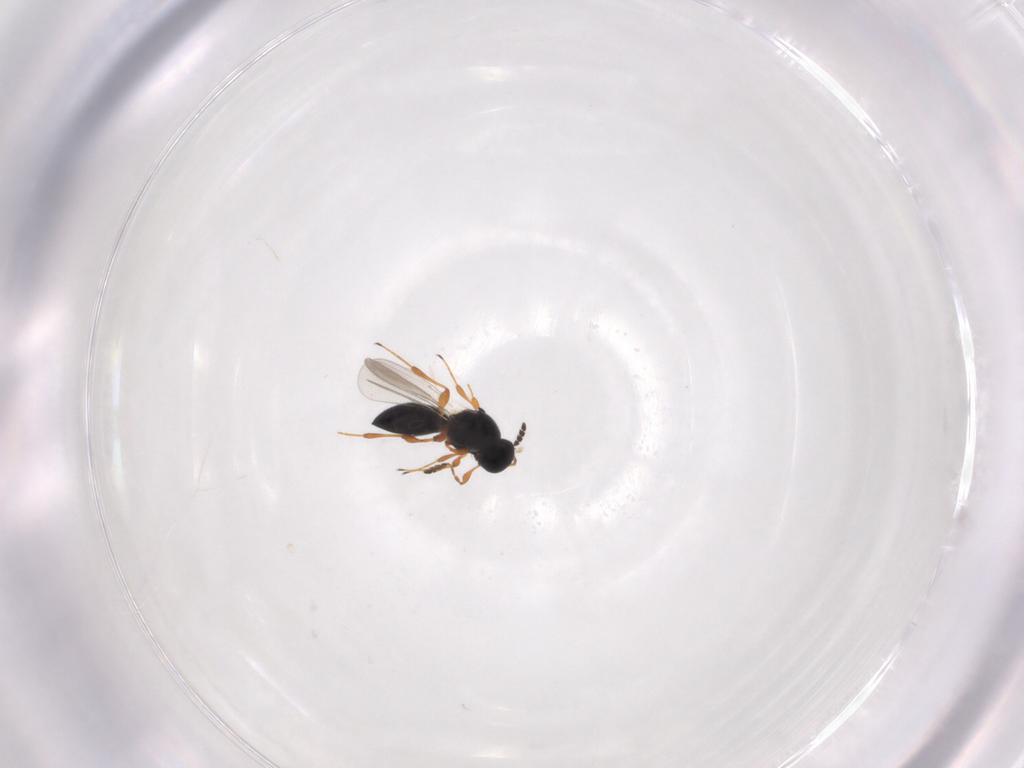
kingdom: Animalia
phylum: Arthropoda
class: Insecta
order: Hymenoptera
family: Platygastridae
